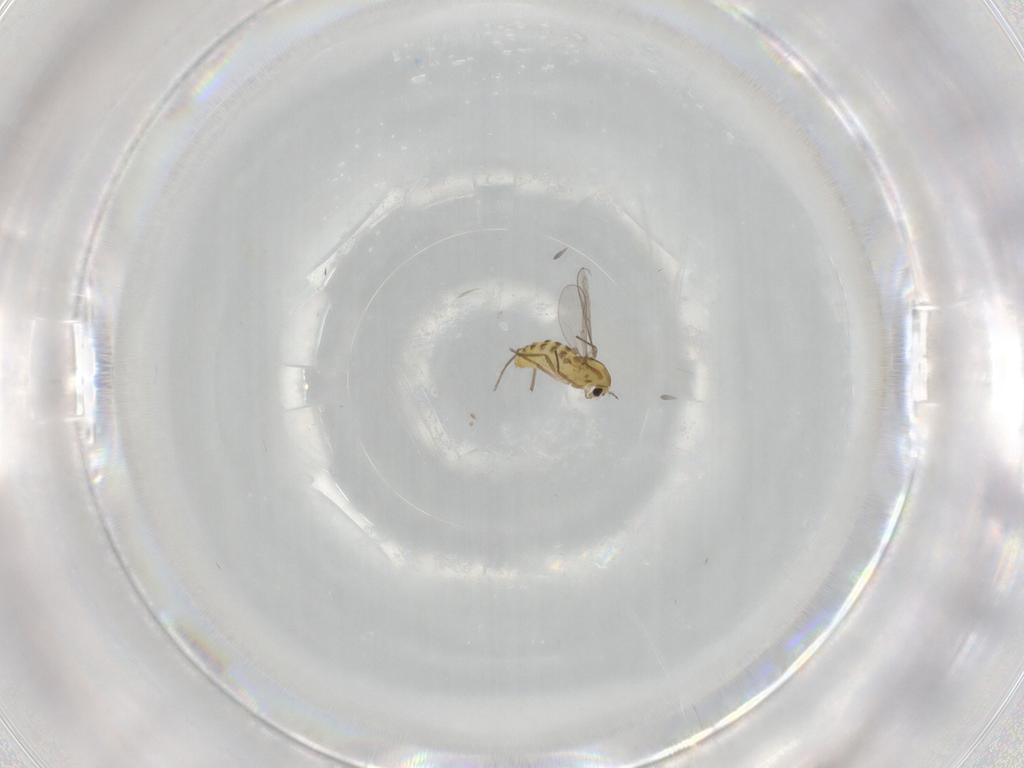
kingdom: Animalia
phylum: Arthropoda
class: Insecta
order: Diptera
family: Chironomidae
